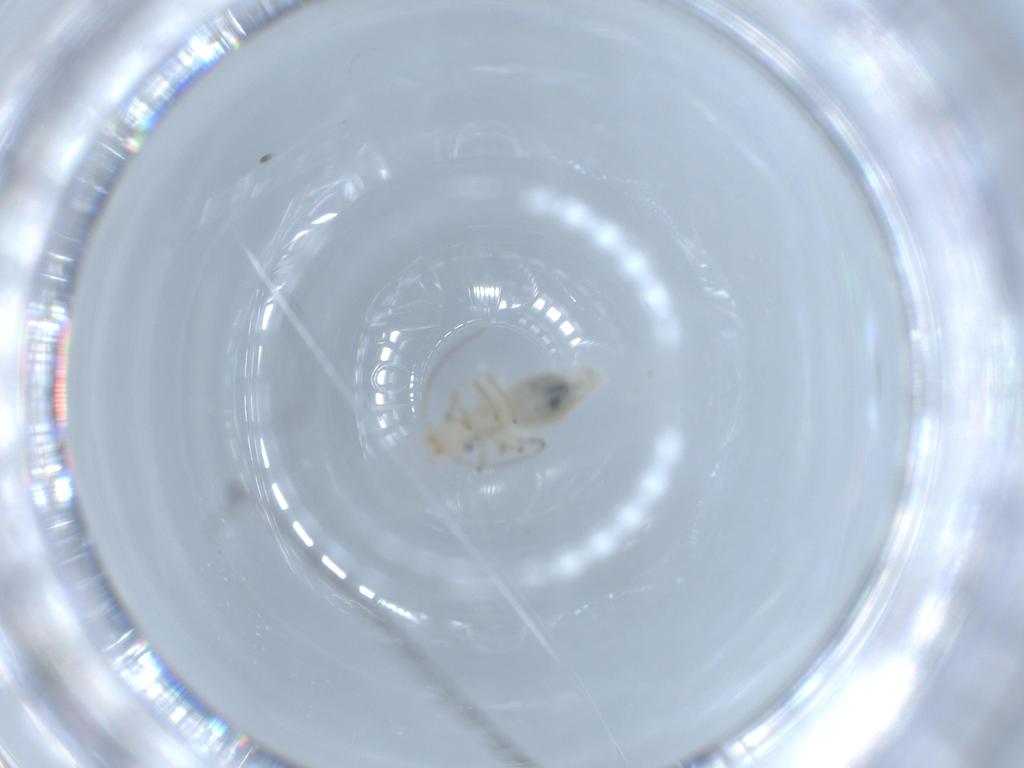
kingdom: Animalia
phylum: Arthropoda
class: Insecta
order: Psocodea
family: Caeciliusidae
